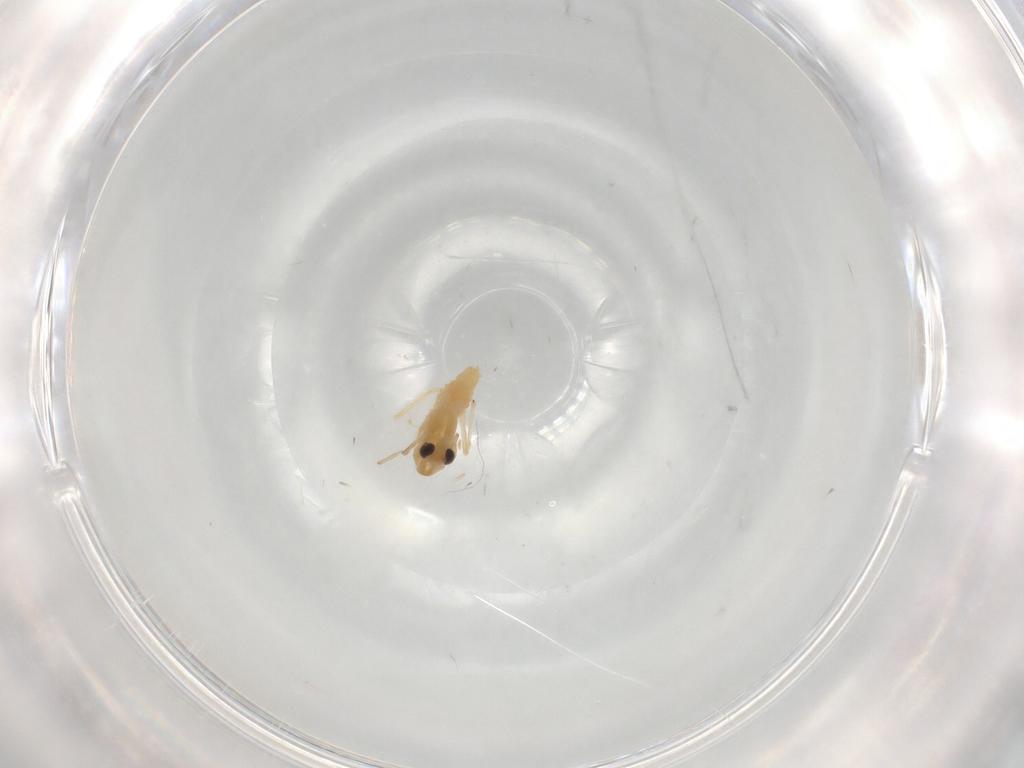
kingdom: Animalia
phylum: Arthropoda
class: Insecta
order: Diptera
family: Chironomidae
